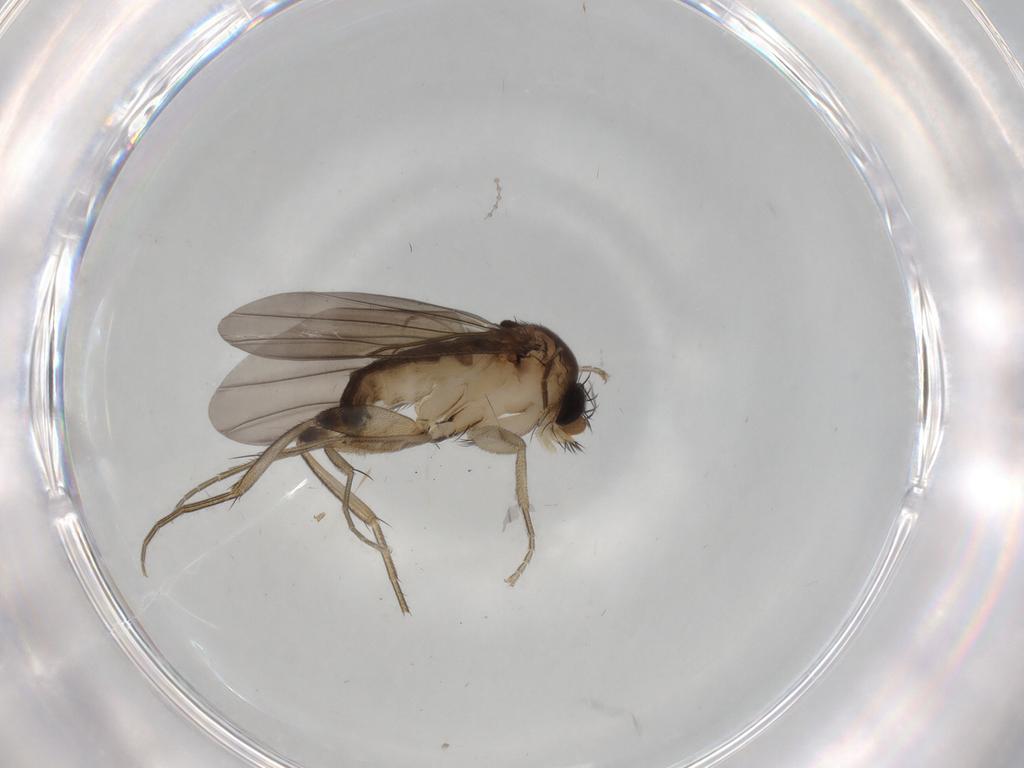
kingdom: Animalia
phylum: Arthropoda
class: Insecta
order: Diptera
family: Phoridae
